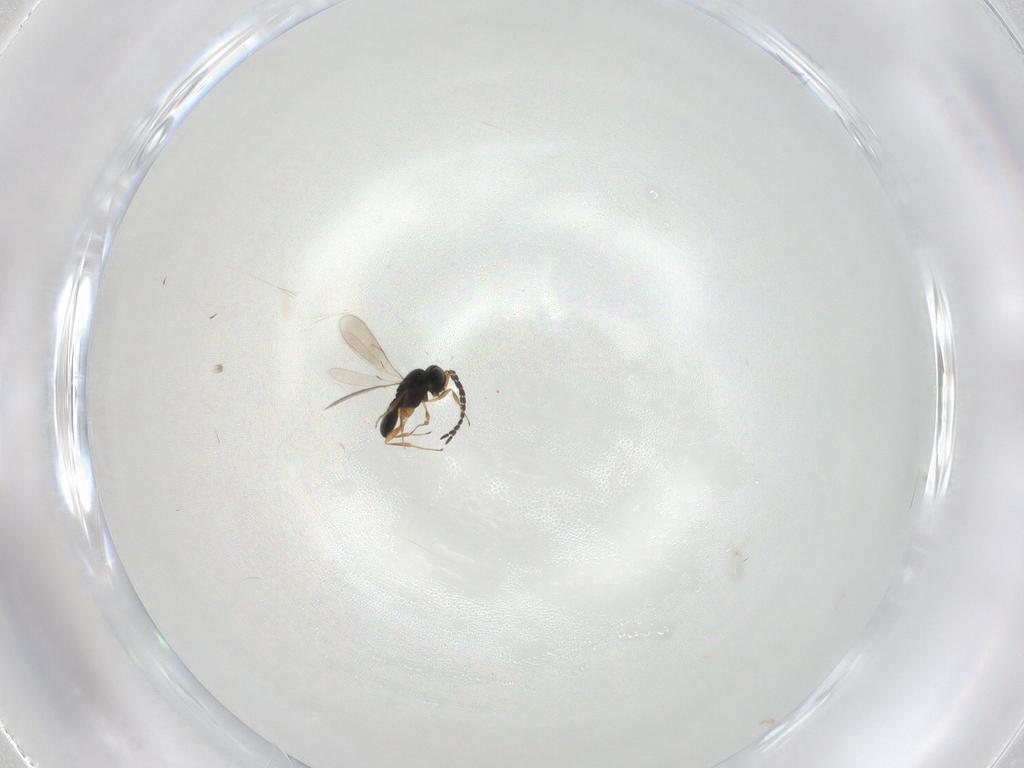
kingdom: Animalia
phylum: Arthropoda
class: Insecta
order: Hymenoptera
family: Scelionidae
